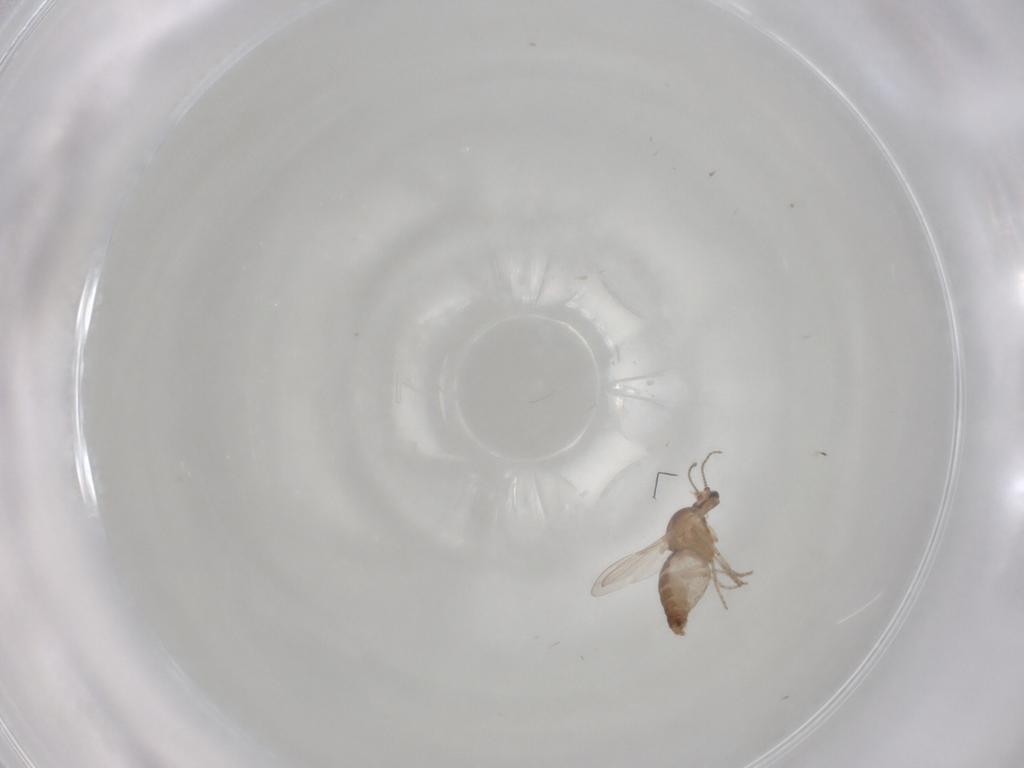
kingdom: Animalia
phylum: Arthropoda
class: Insecta
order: Diptera
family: Ceratopogonidae
